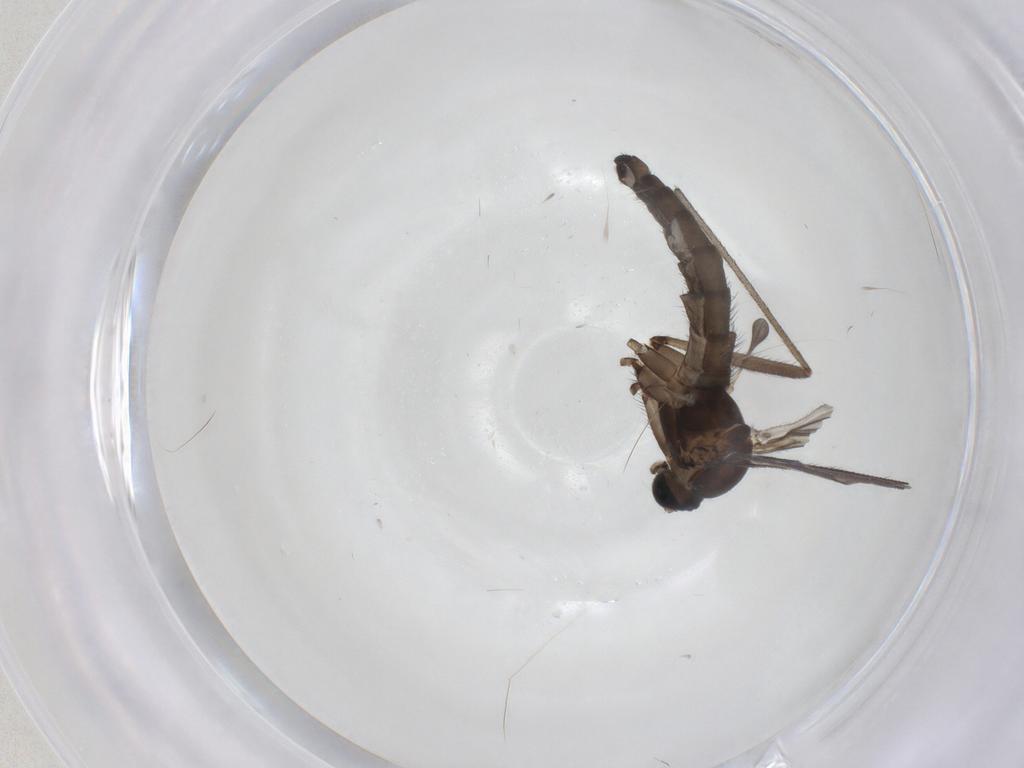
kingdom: Animalia
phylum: Arthropoda
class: Insecta
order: Diptera
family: Sciaridae
